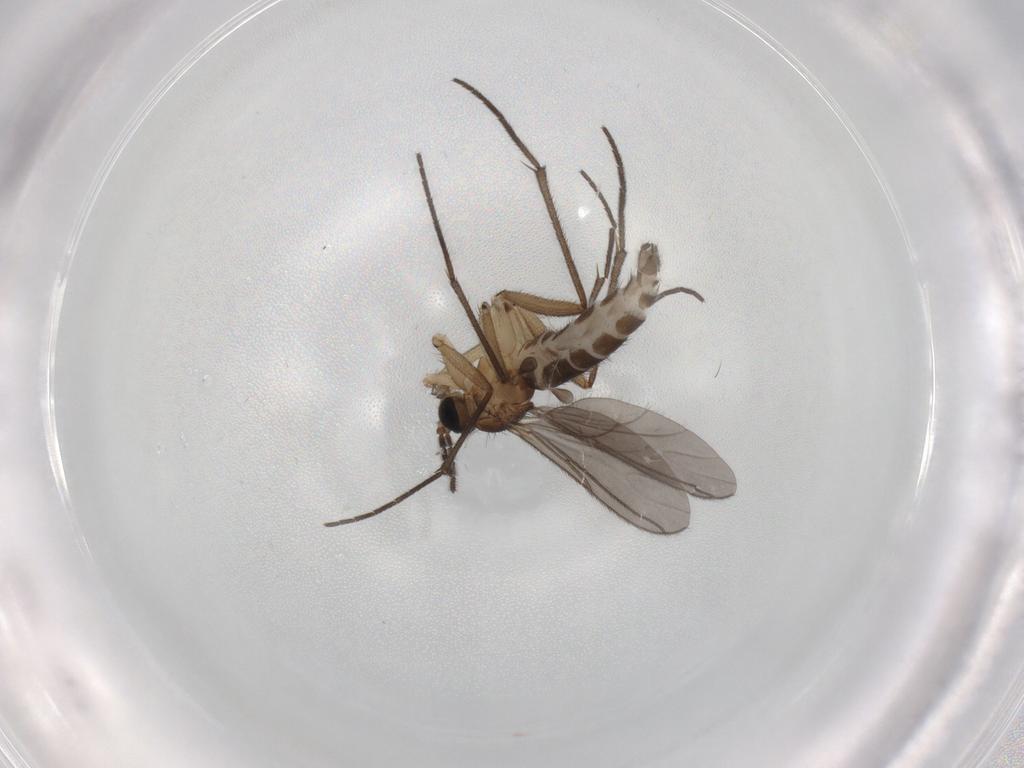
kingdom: Animalia
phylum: Arthropoda
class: Insecta
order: Diptera
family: Sciaridae
